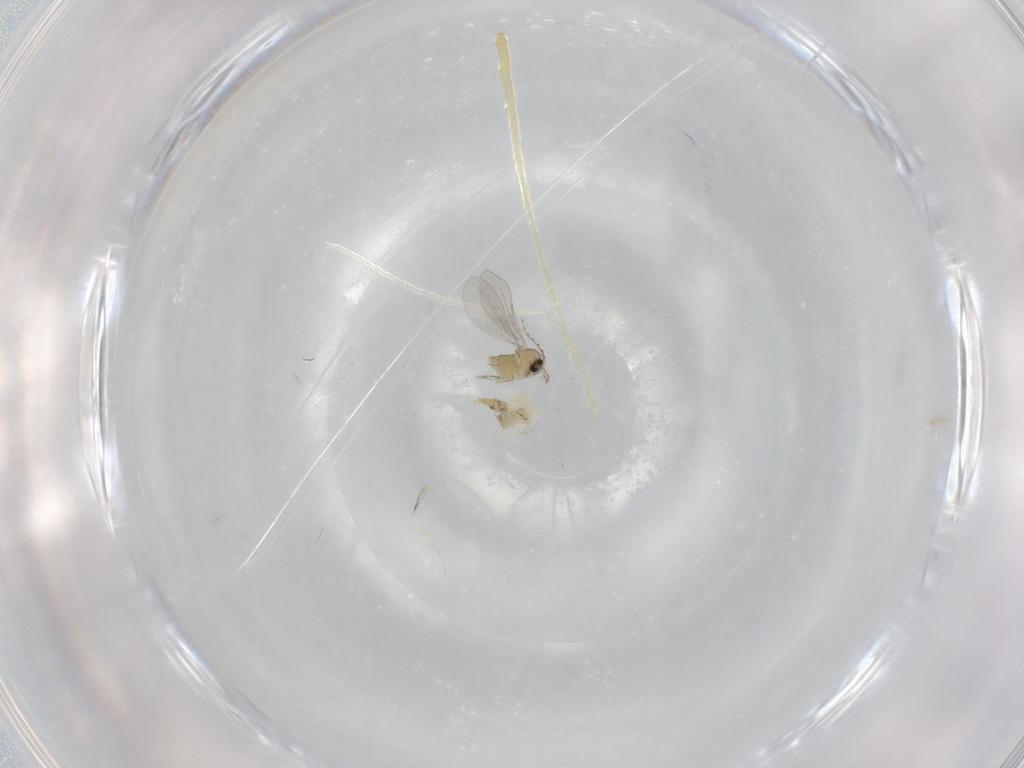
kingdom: Animalia
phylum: Arthropoda
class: Insecta
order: Diptera
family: Cecidomyiidae
